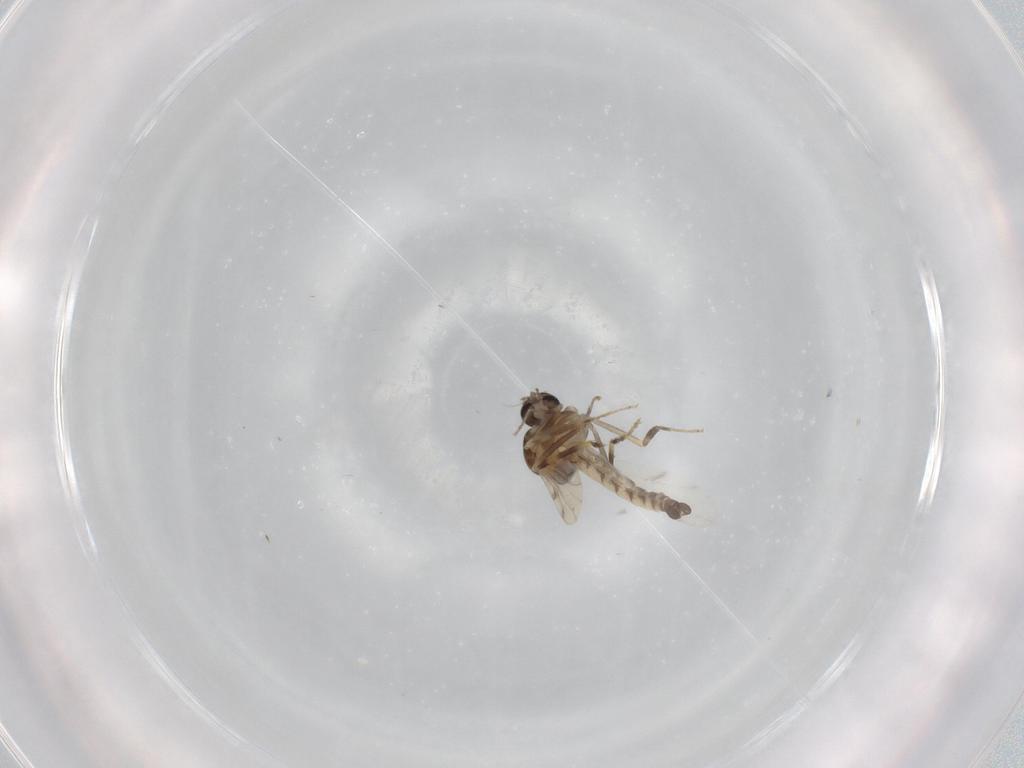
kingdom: Animalia
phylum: Arthropoda
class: Insecta
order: Diptera
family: Ceratopogonidae
